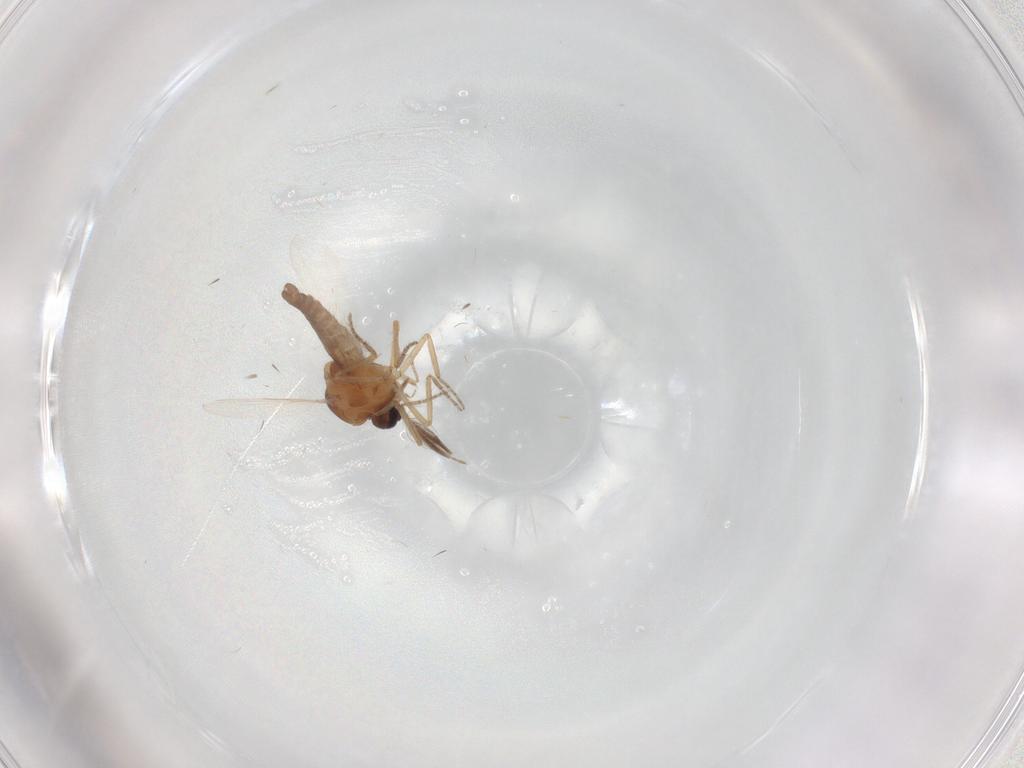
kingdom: Animalia
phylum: Arthropoda
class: Insecta
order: Diptera
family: Ceratopogonidae
